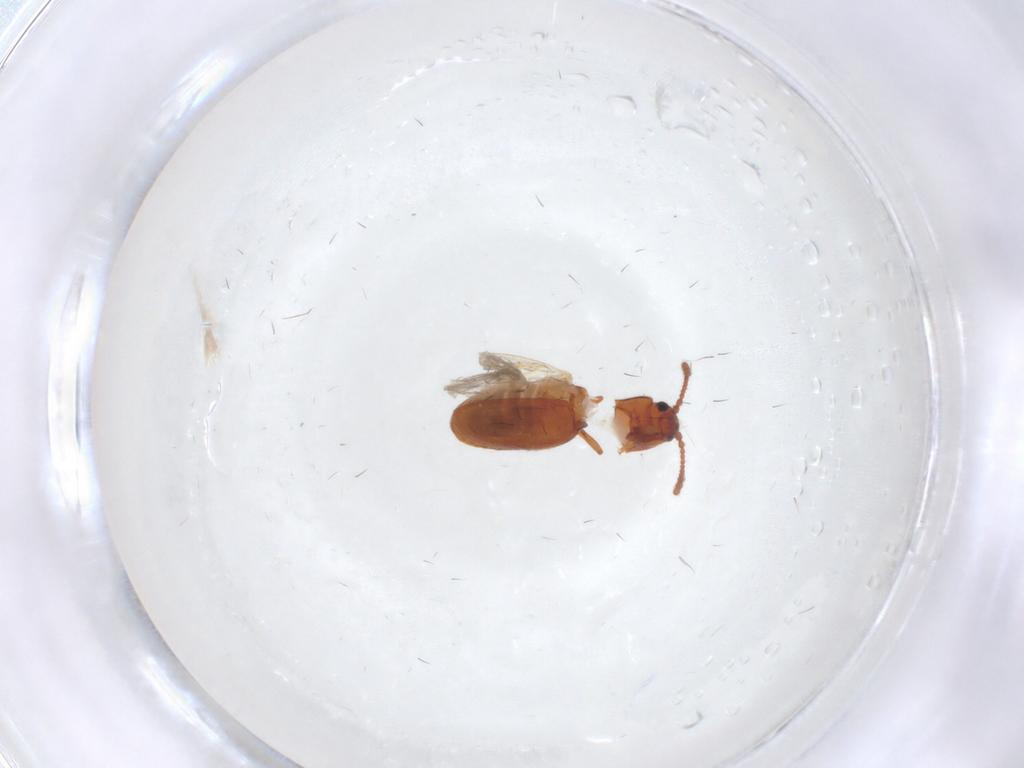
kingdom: Animalia
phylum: Arthropoda
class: Insecta
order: Coleoptera
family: Cryptophagidae
